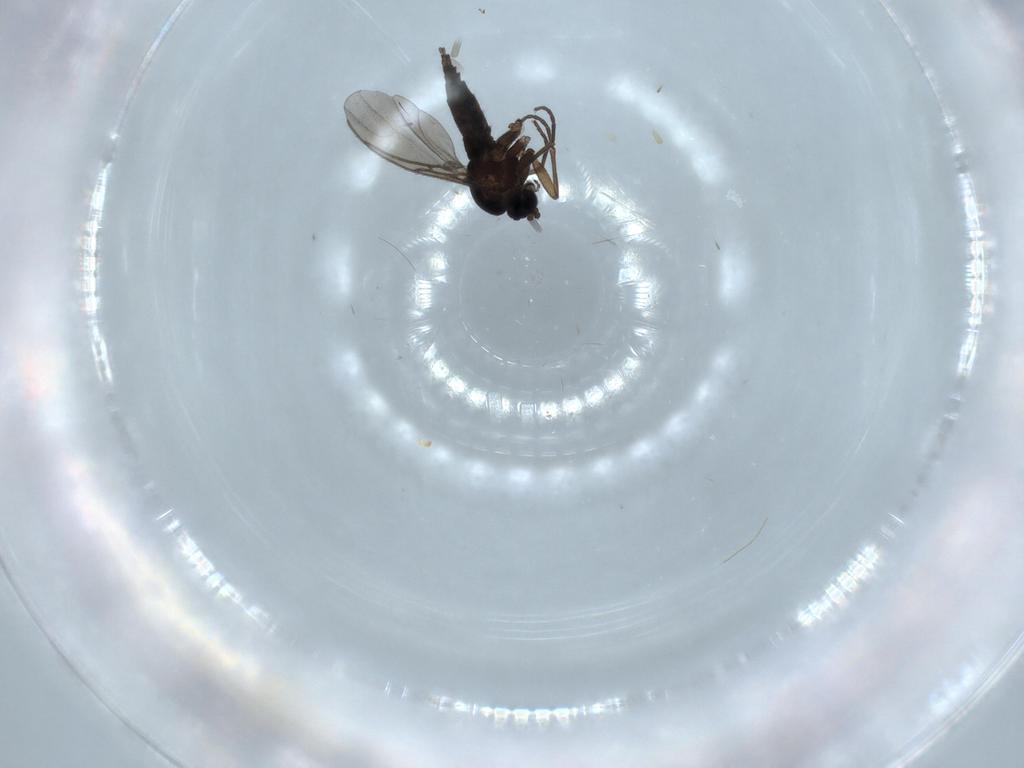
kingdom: Animalia
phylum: Arthropoda
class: Insecta
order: Diptera
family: Sciaridae
